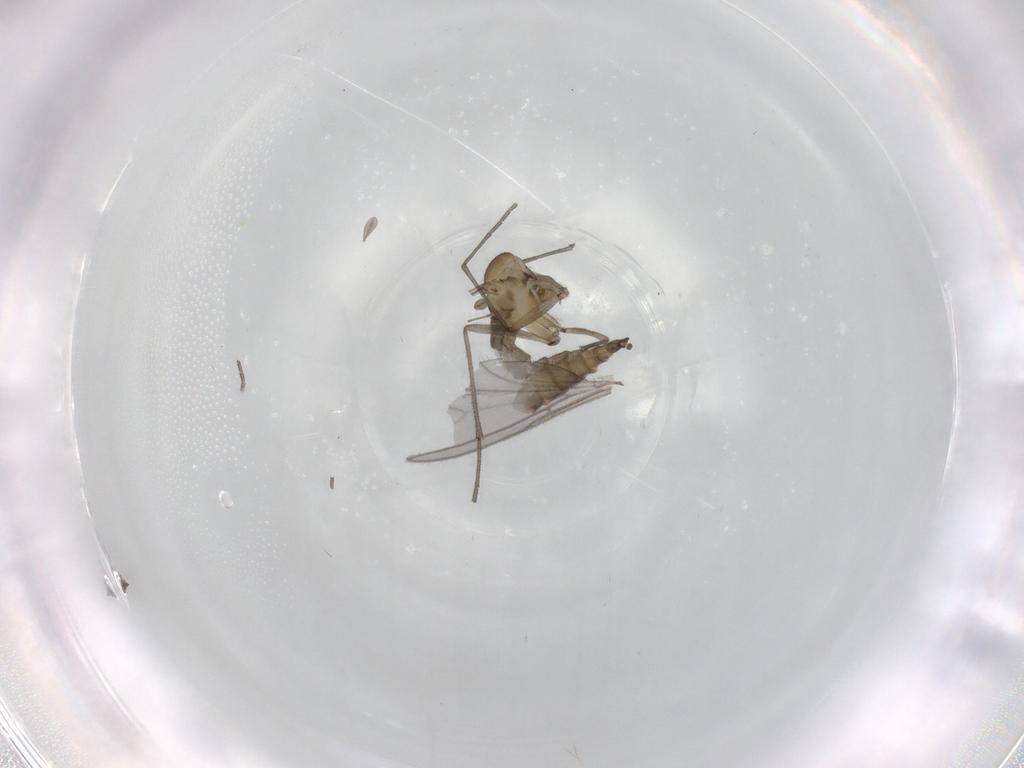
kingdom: Animalia
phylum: Arthropoda
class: Insecta
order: Diptera
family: Sciaridae
